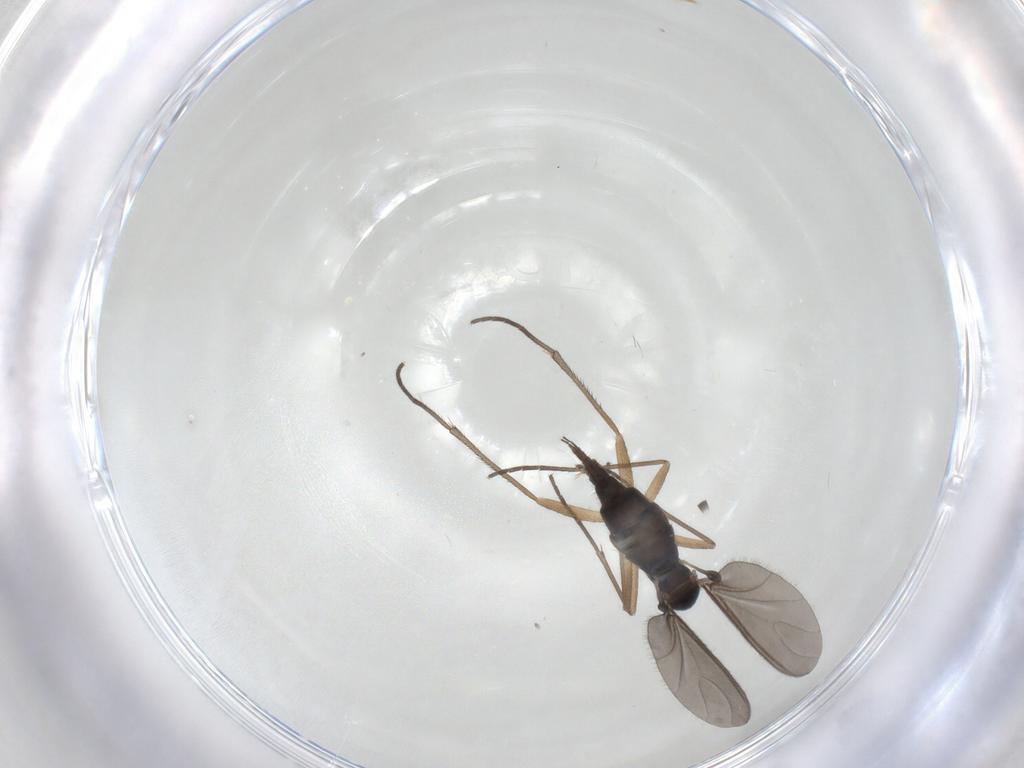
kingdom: Animalia
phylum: Arthropoda
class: Insecta
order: Diptera
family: Sciaridae
